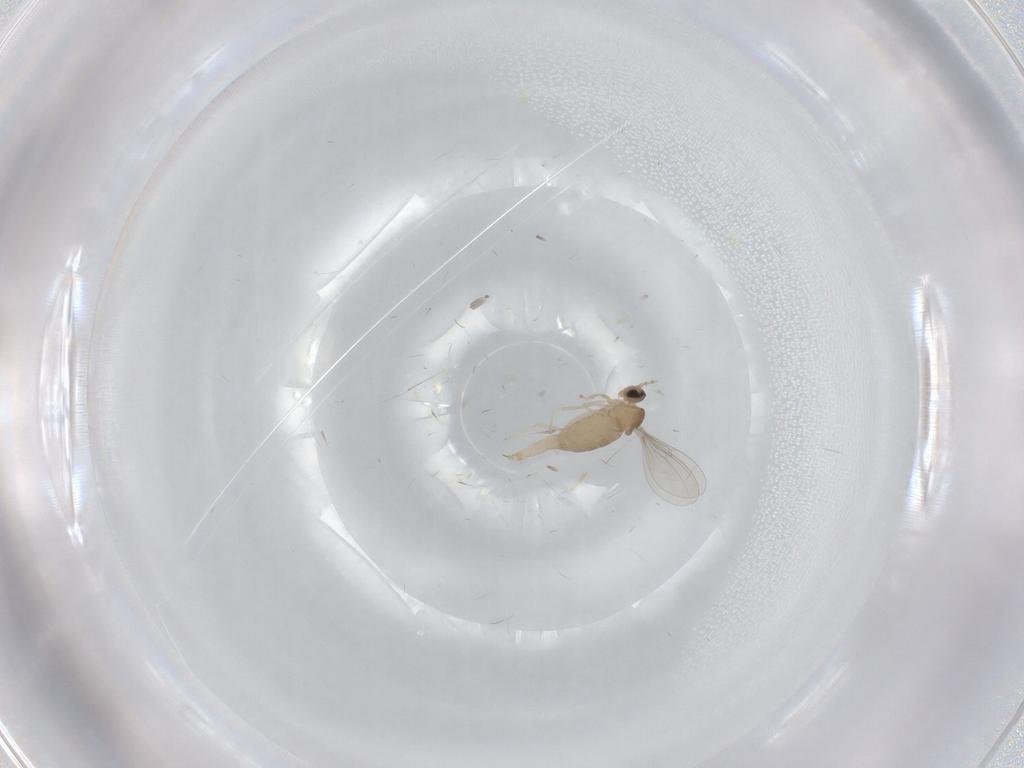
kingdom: Animalia
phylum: Arthropoda
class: Insecta
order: Diptera
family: Cecidomyiidae
